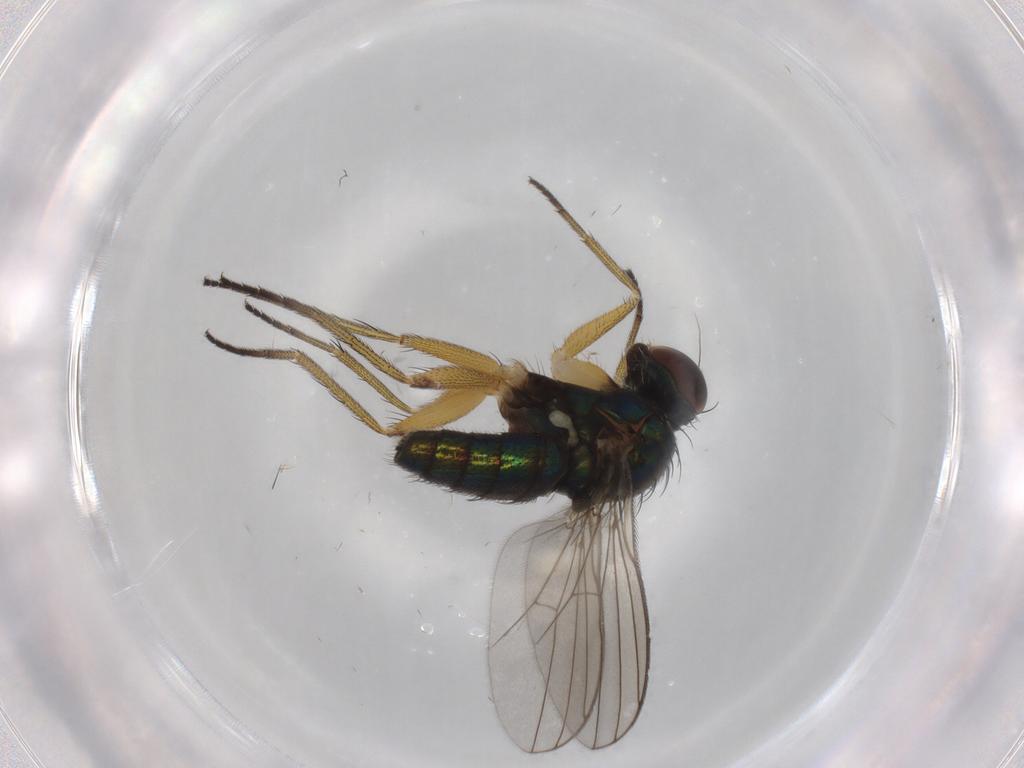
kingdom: Animalia
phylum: Arthropoda
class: Insecta
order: Diptera
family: Dolichopodidae
